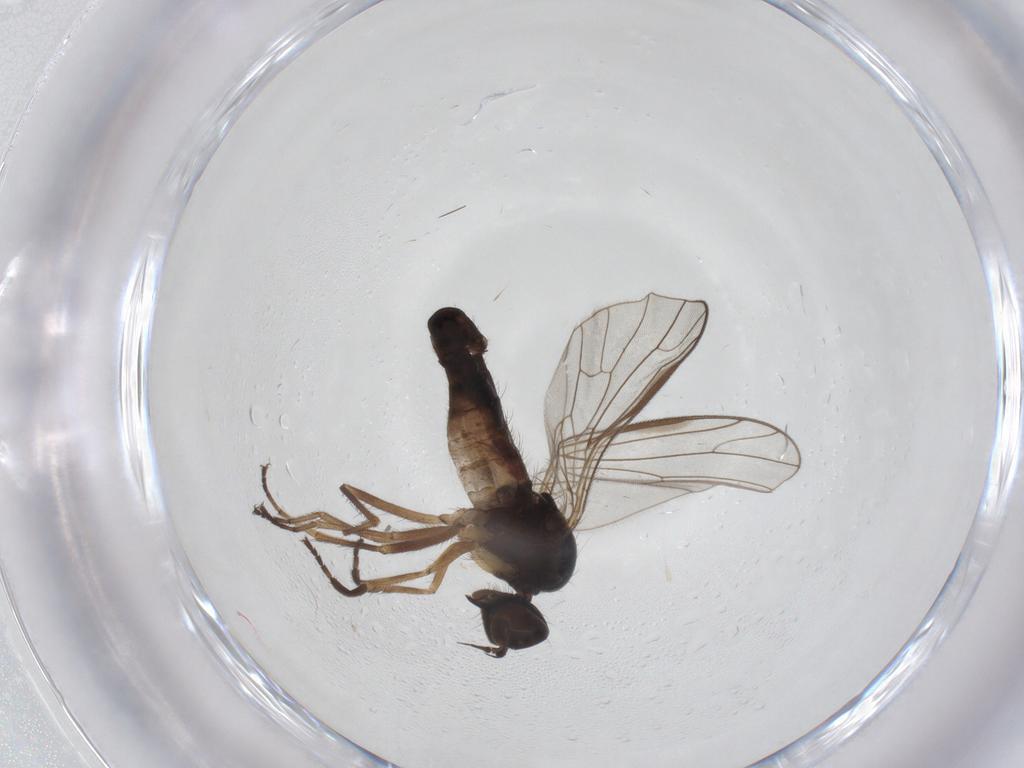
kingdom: Animalia
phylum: Arthropoda
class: Insecta
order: Diptera
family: Empididae
